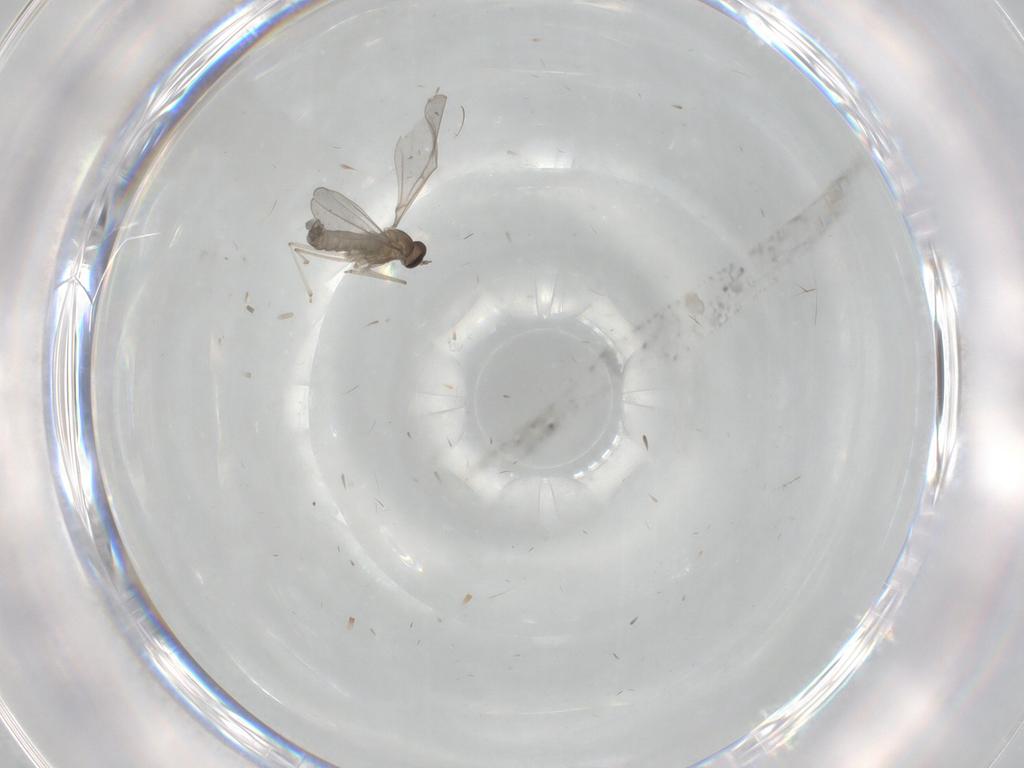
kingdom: Animalia
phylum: Arthropoda
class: Insecta
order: Diptera
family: Cecidomyiidae
